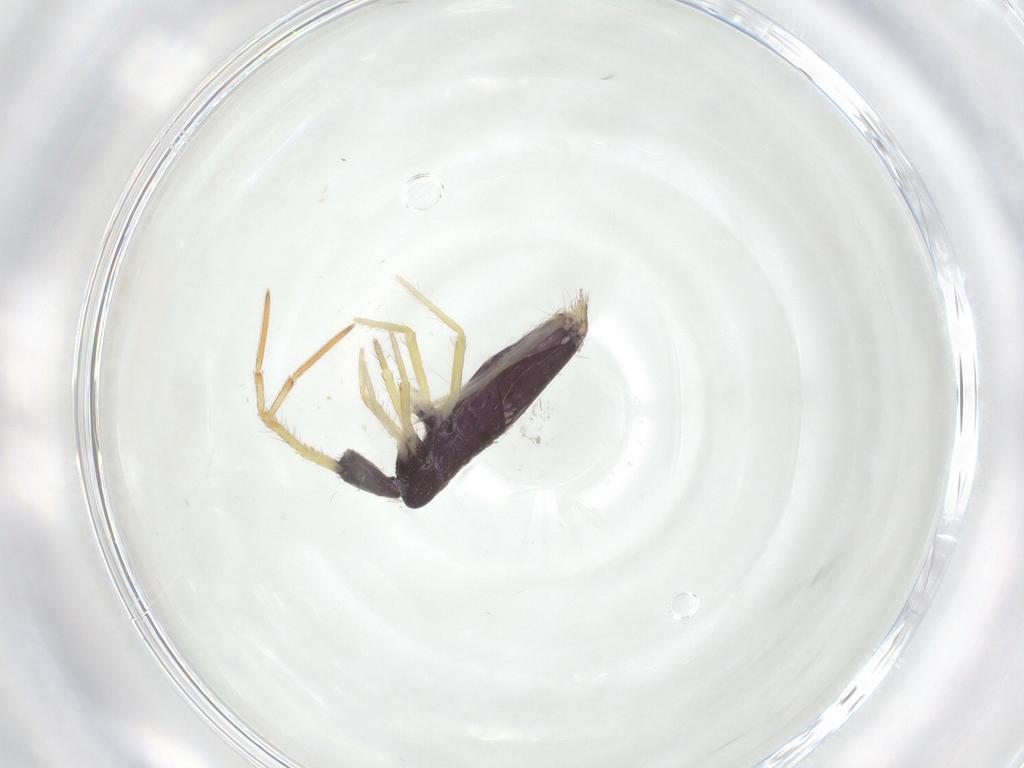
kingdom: Animalia
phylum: Arthropoda
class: Collembola
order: Entomobryomorpha
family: Entomobryidae
